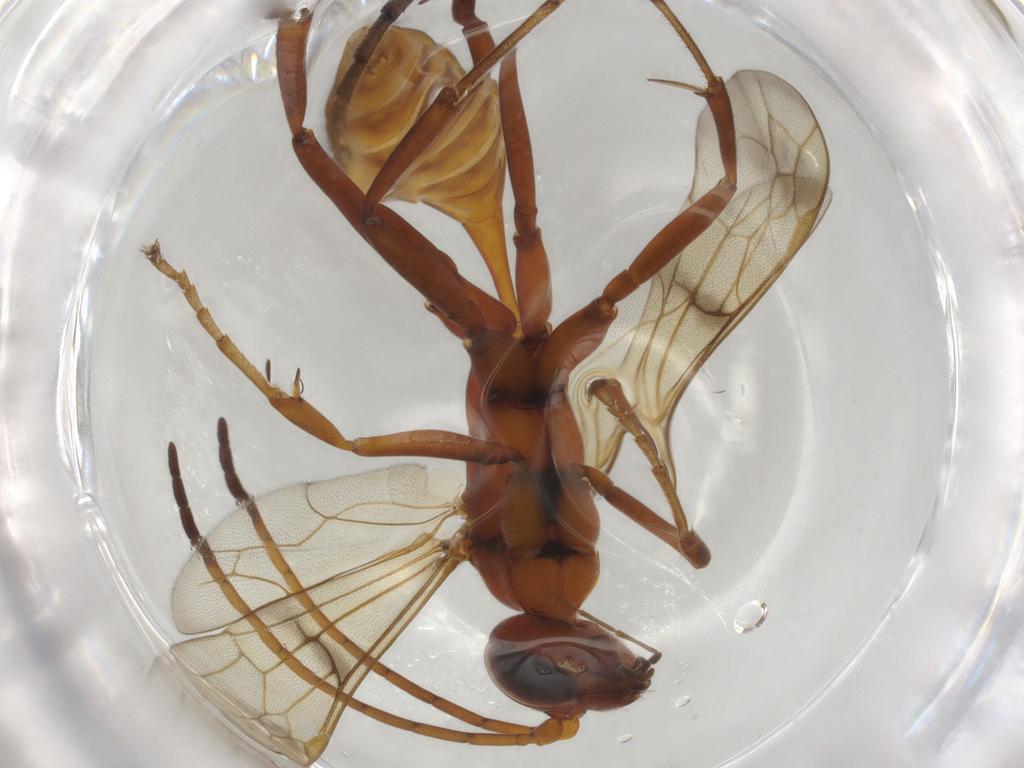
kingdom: Animalia
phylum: Arthropoda
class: Insecta
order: Hymenoptera
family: Pompilidae
